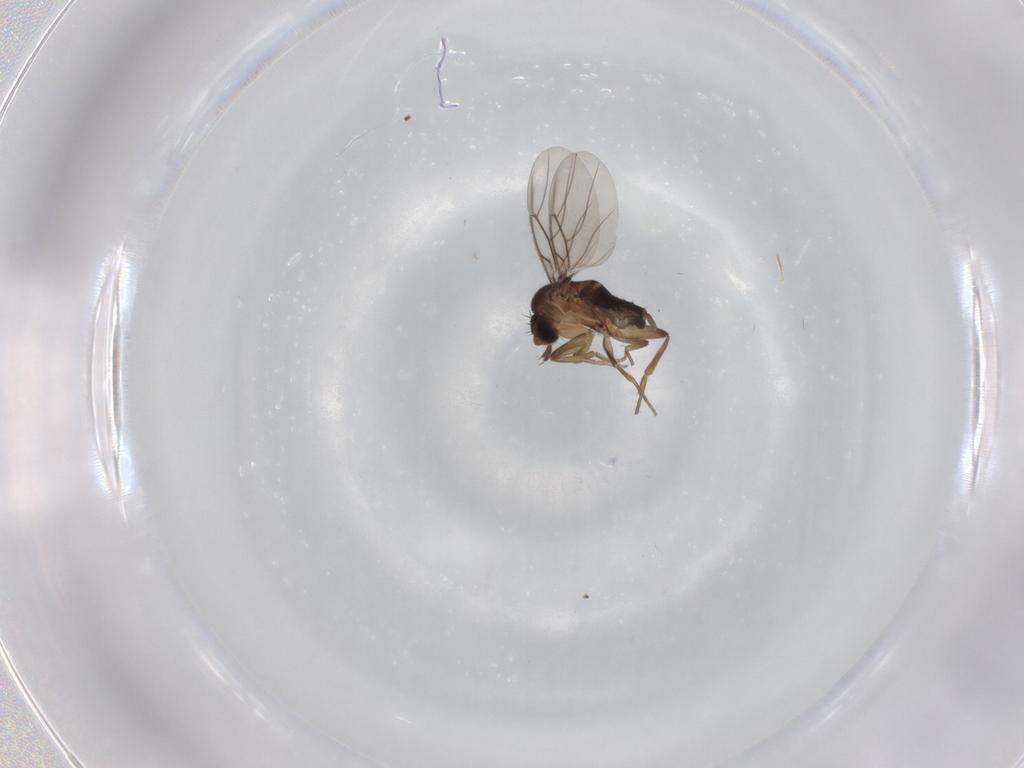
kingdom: Animalia
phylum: Arthropoda
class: Insecta
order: Diptera
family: Phoridae
